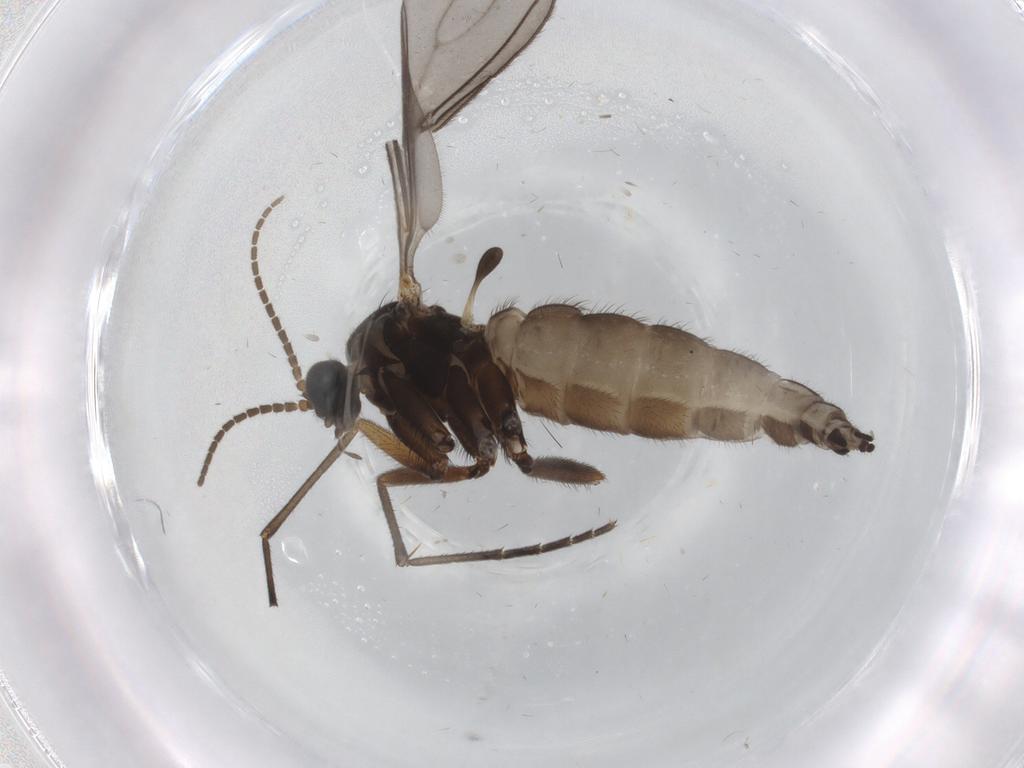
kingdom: Animalia
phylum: Arthropoda
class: Insecta
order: Diptera
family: Sciaridae
